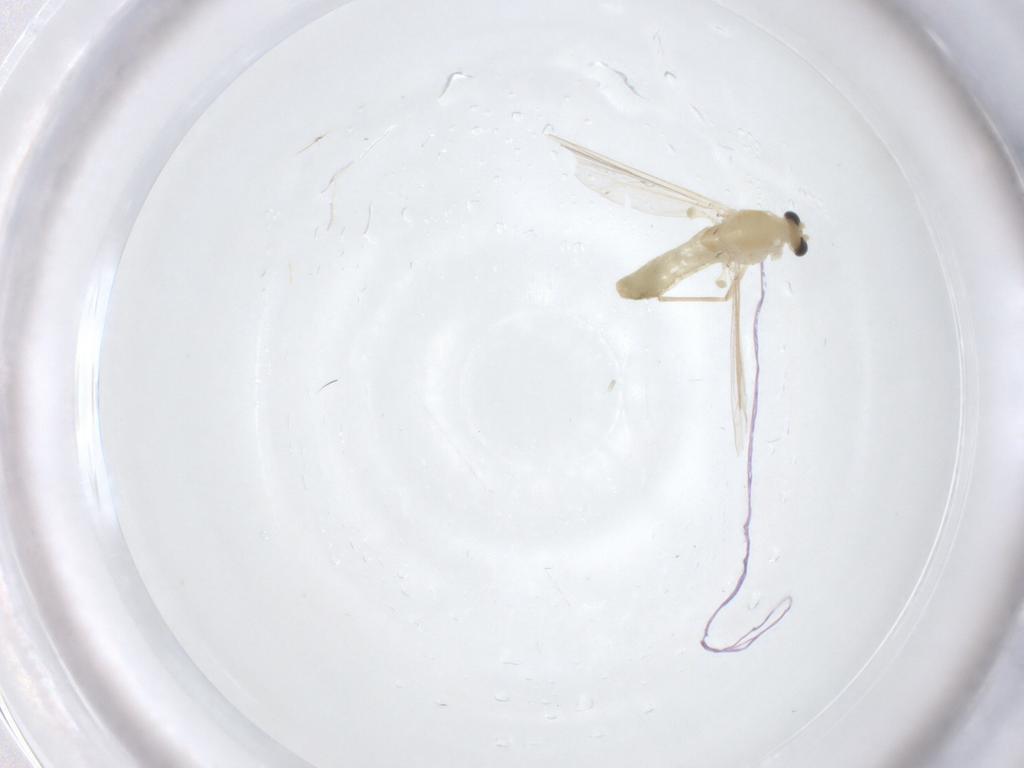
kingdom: Animalia
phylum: Arthropoda
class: Insecta
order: Diptera
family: Chironomidae
